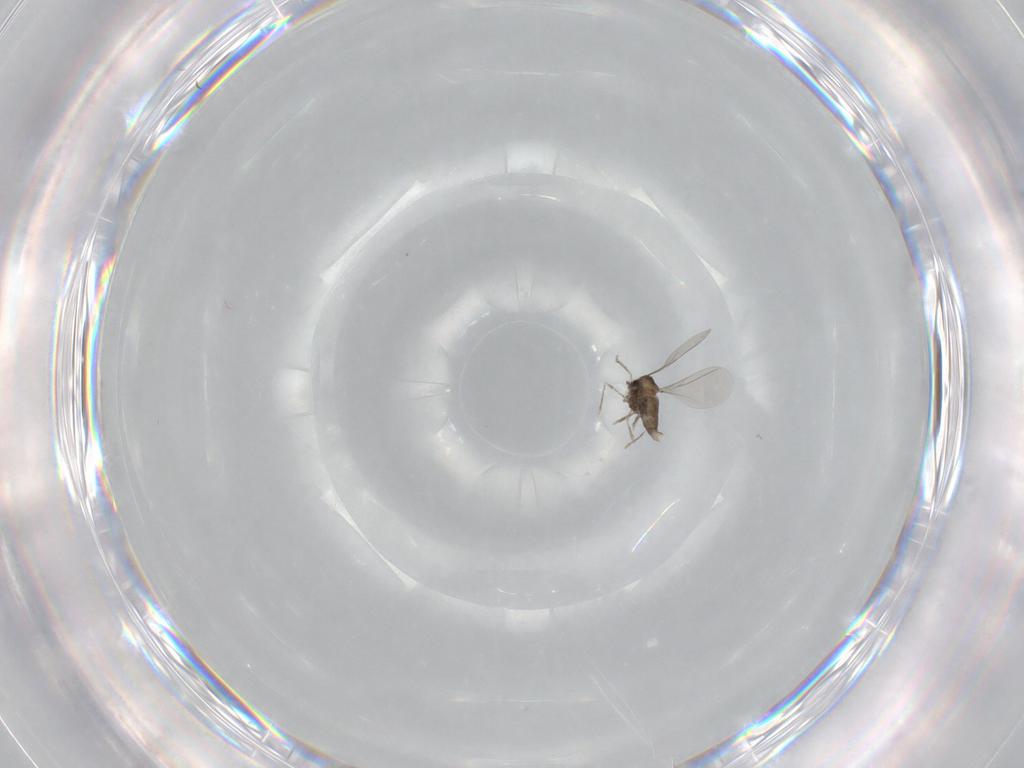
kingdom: Animalia
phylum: Arthropoda
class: Insecta
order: Diptera
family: Cecidomyiidae
